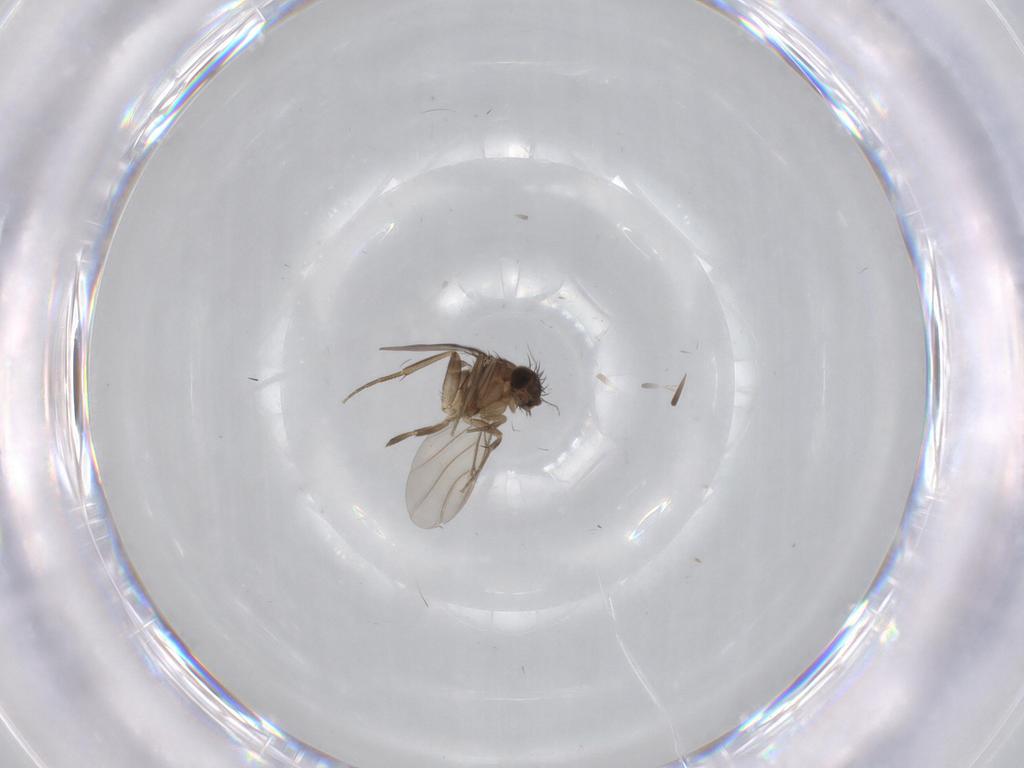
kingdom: Animalia
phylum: Arthropoda
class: Insecta
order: Diptera
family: Phoridae
